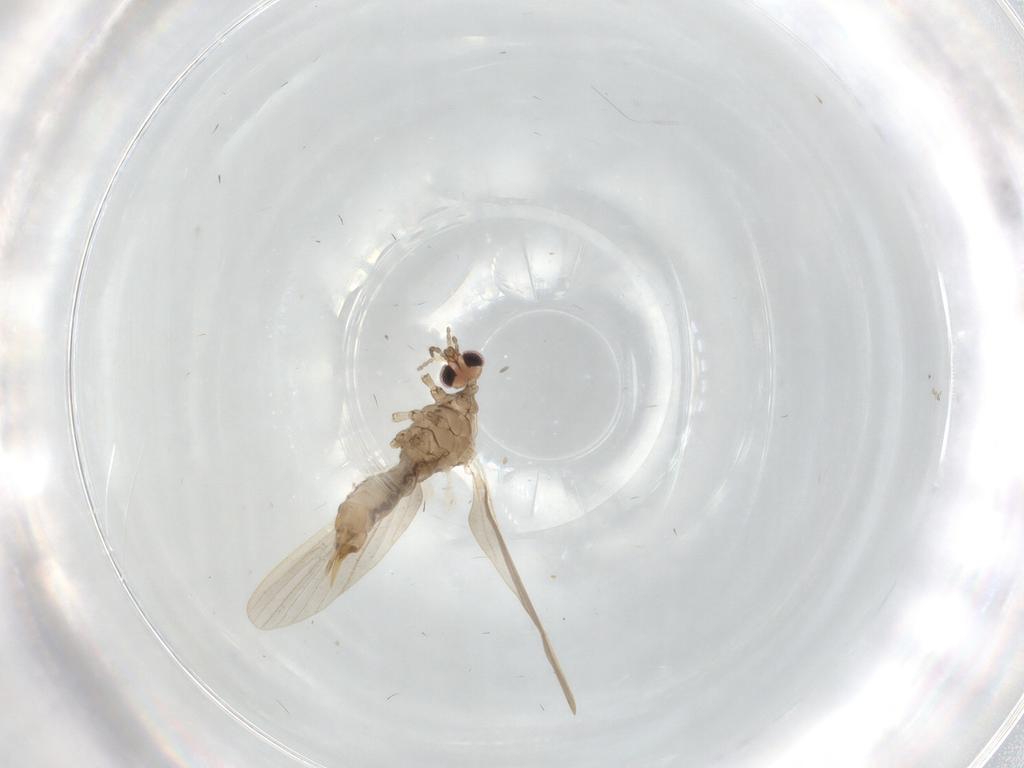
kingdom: Animalia
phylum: Arthropoda
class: Insecta
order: Diptera
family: Limoniidae
